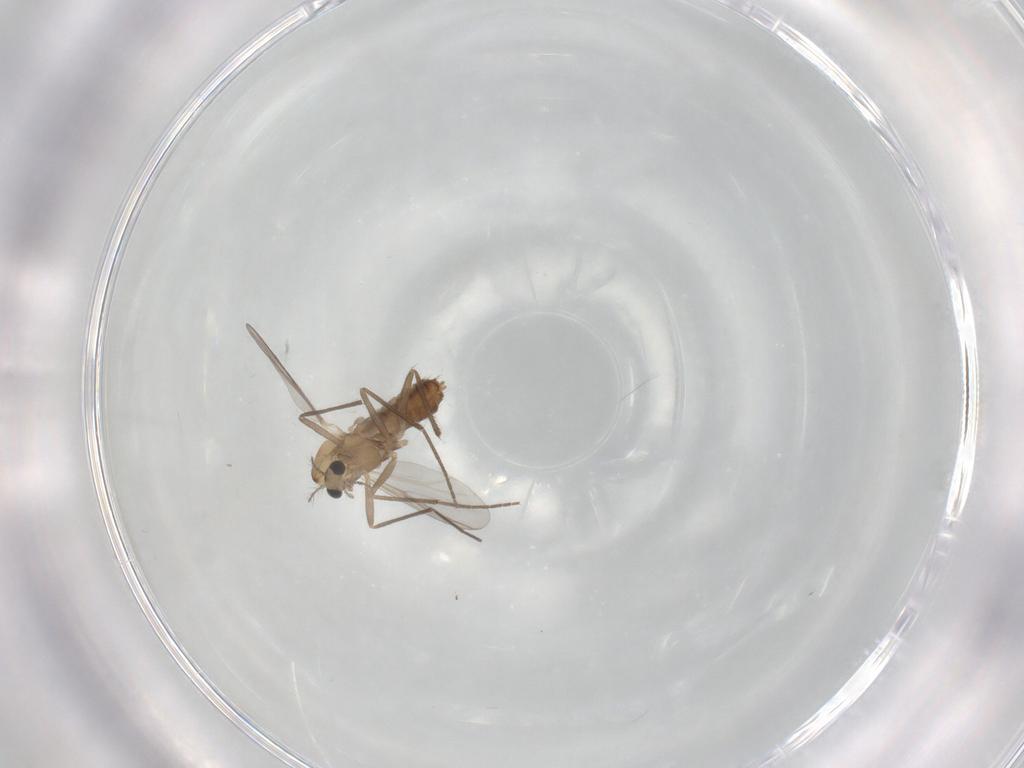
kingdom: Animalia
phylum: Arthropoda
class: Insecta
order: Diptera
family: Chironomidae
